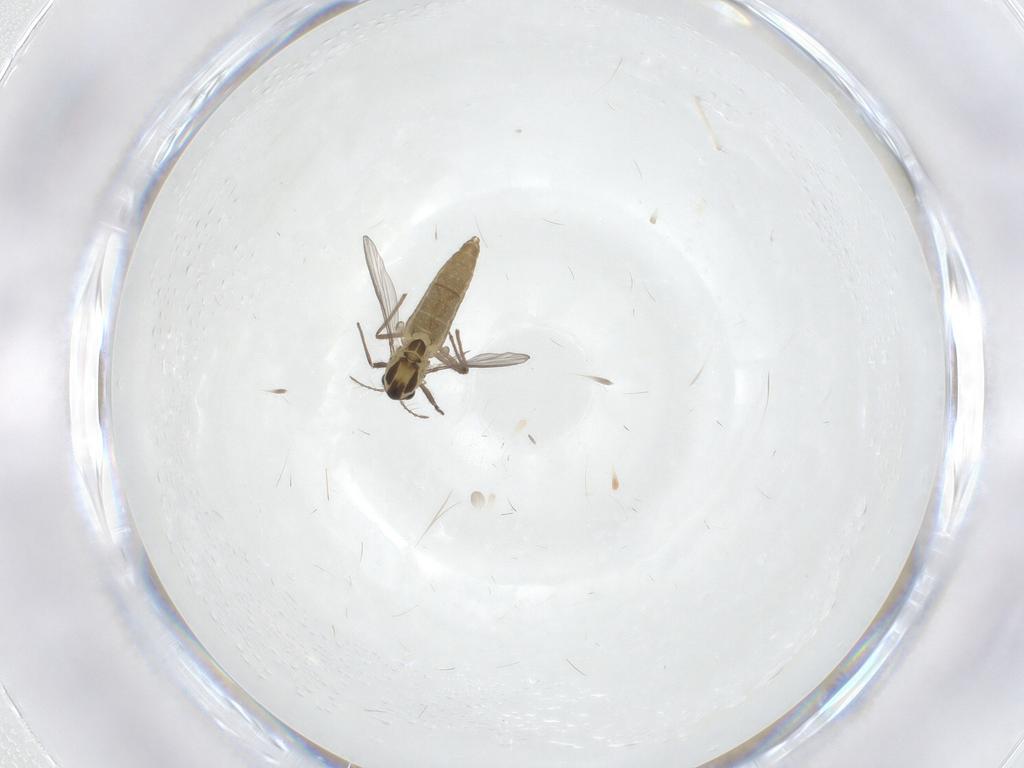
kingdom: Animalia
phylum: Arthropoda
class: Insecta
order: Diptera
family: Chironomidae
